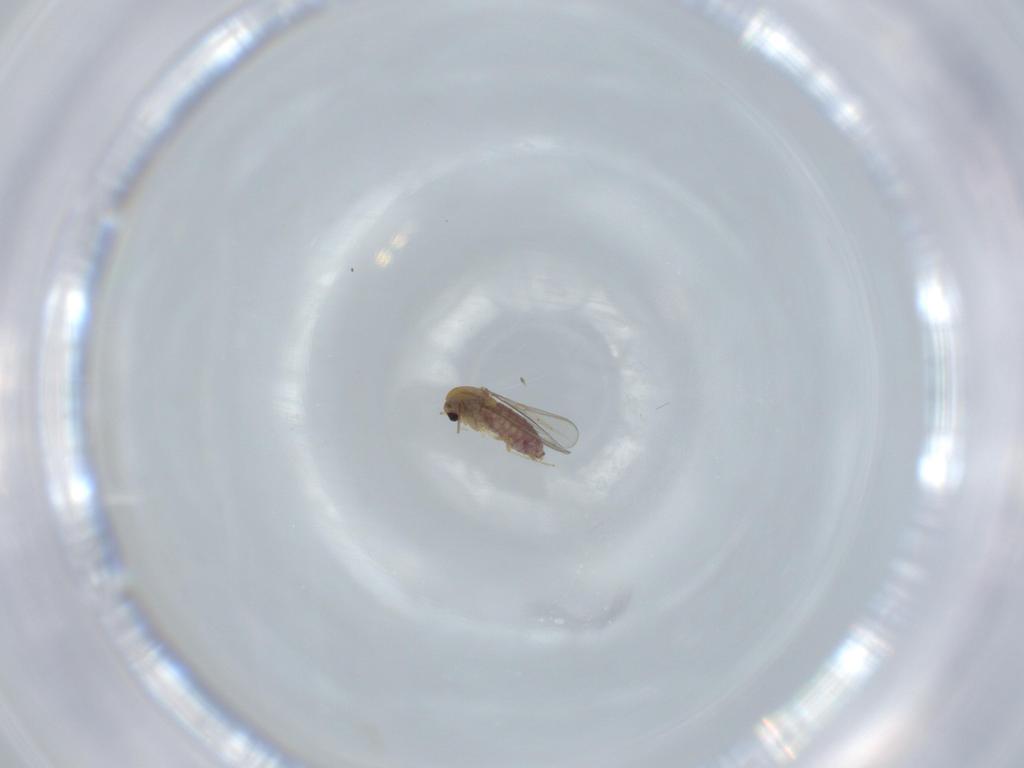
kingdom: Animalia
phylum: Arthropoda
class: Insecta
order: Diptera
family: Chironomidae
